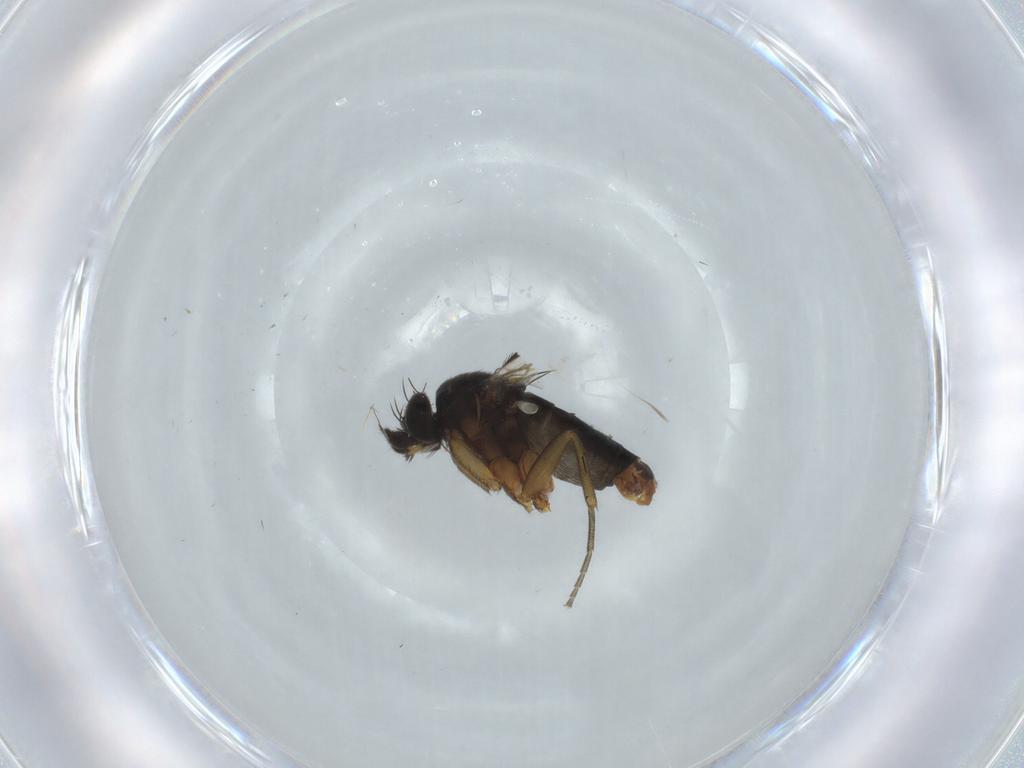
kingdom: Animalia
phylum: Arthropoda
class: Insecta
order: Diptera
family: Phoridae
